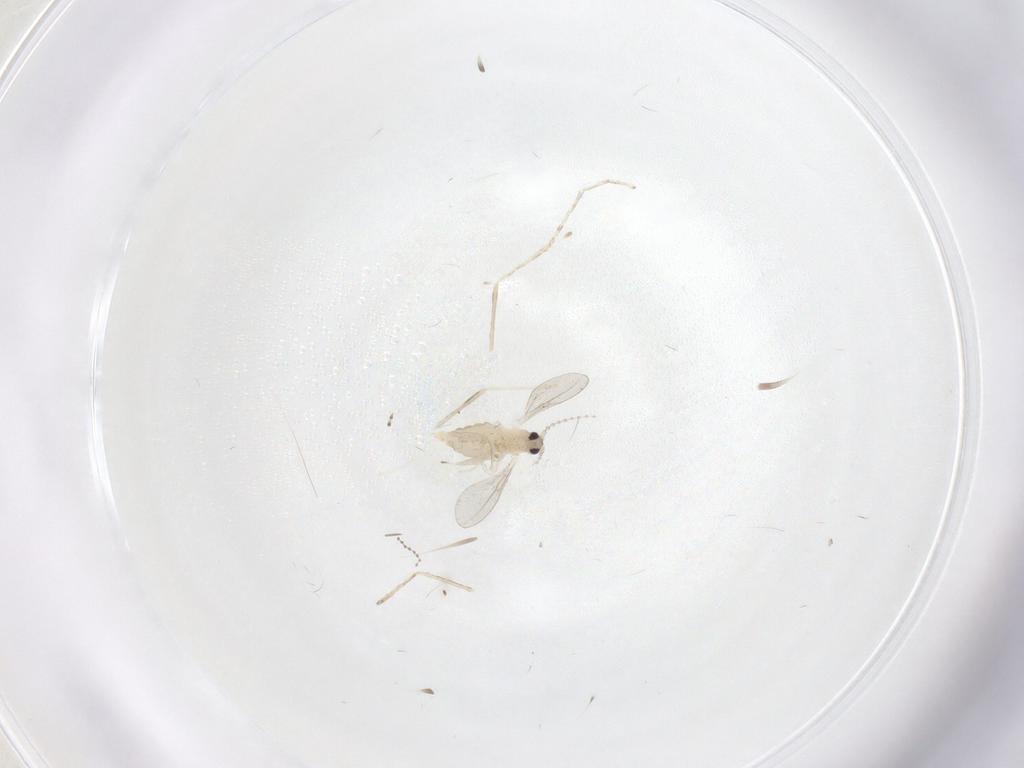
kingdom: Animalia
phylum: Arthropoda
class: Insecta
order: Diptera
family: Cecidomyiidae
